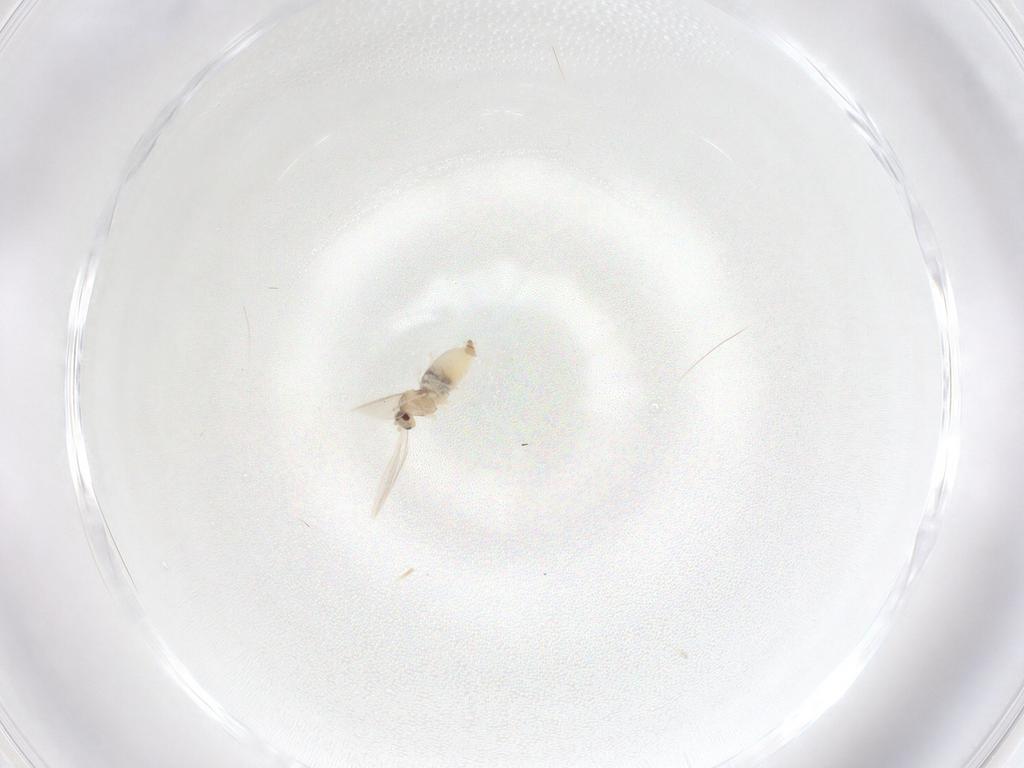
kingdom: Animalia
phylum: Arthropoda
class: Insecta
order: Diptera
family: Cecidomyiidae
